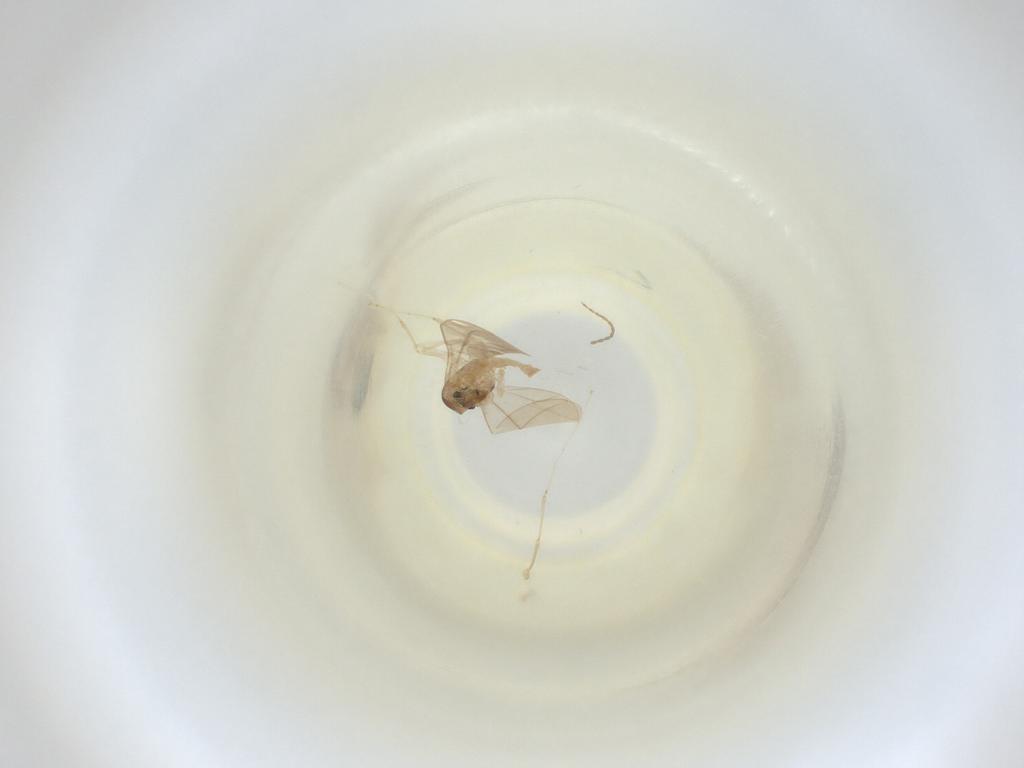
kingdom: Animalia
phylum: Arthropoda
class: Insecta
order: Diptera
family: Cecidomyiidae
